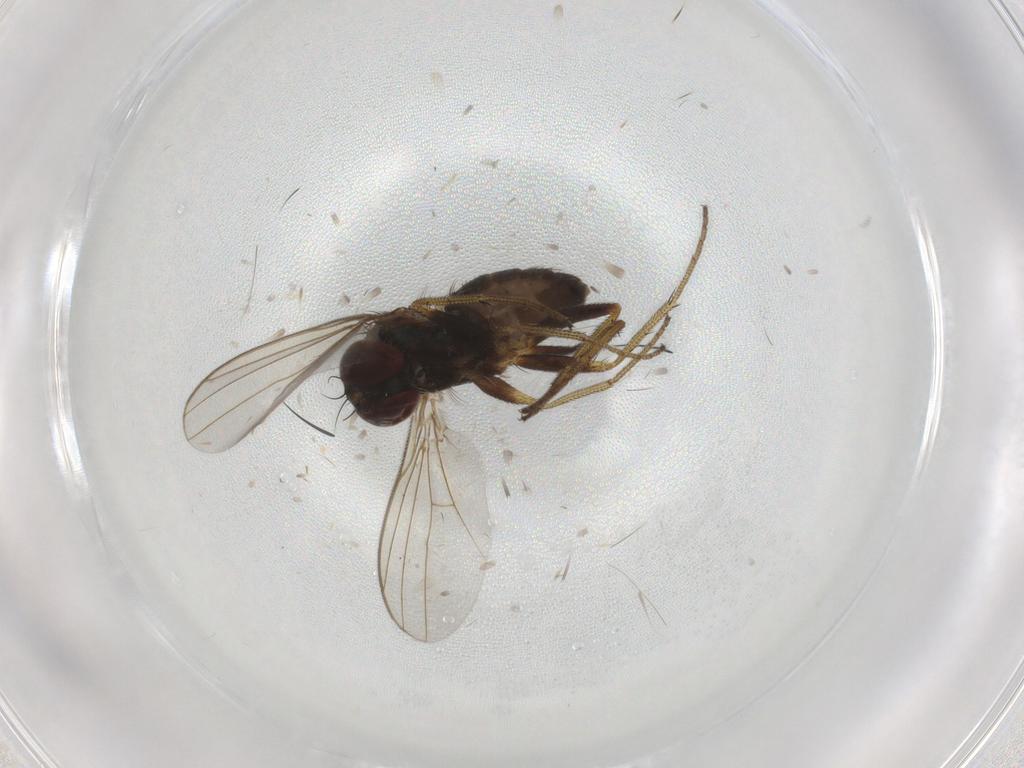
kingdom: Animalia
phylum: Arthropoda
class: Insecta
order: Diptera
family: Dolichopodidae
